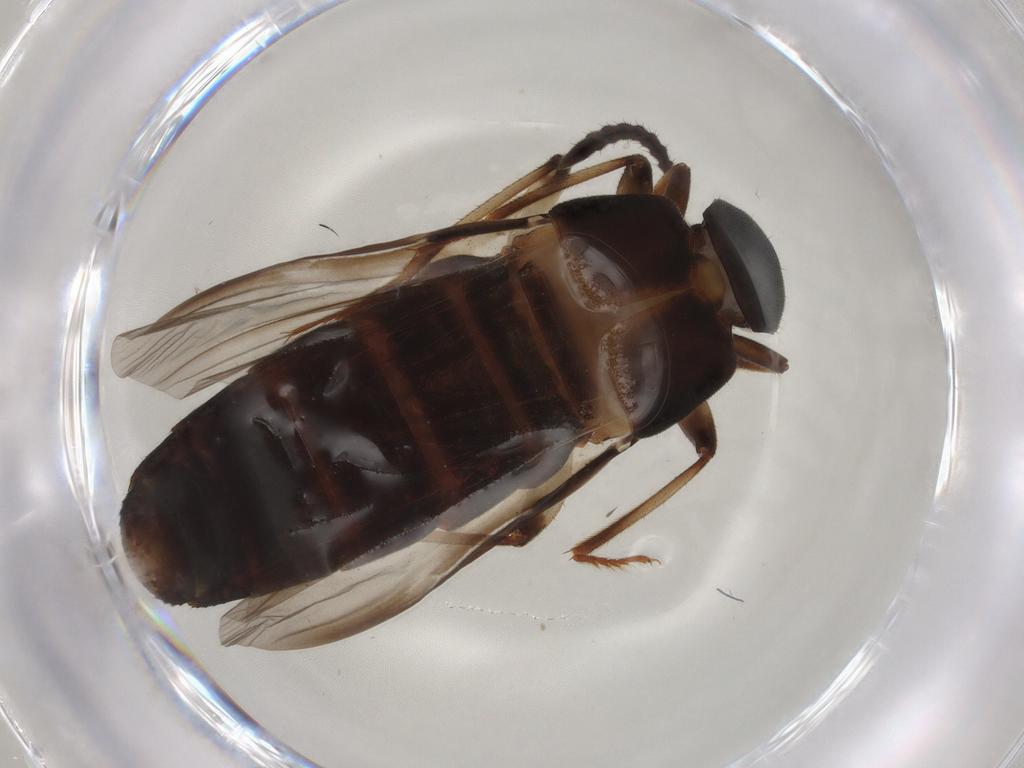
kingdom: Animalia
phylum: Arthropoda
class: Insecta
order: Coleoptera
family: Staphylinidae
